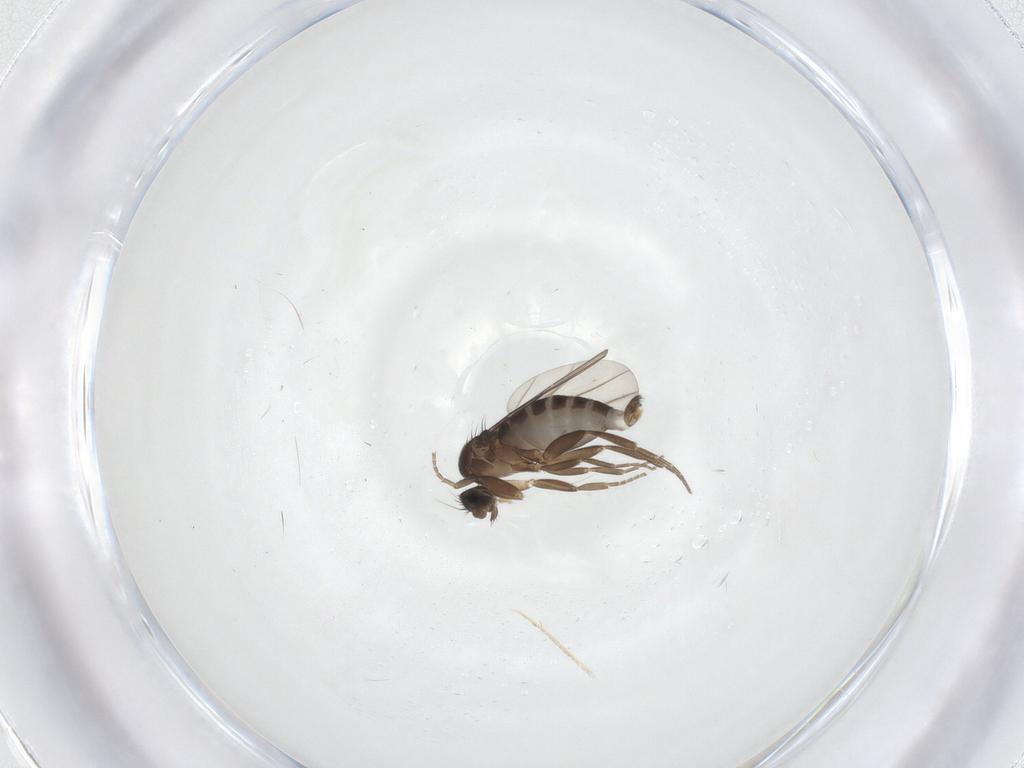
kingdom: Animalia
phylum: Arthropoda
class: Insecta
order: Diptera
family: Phoridae
